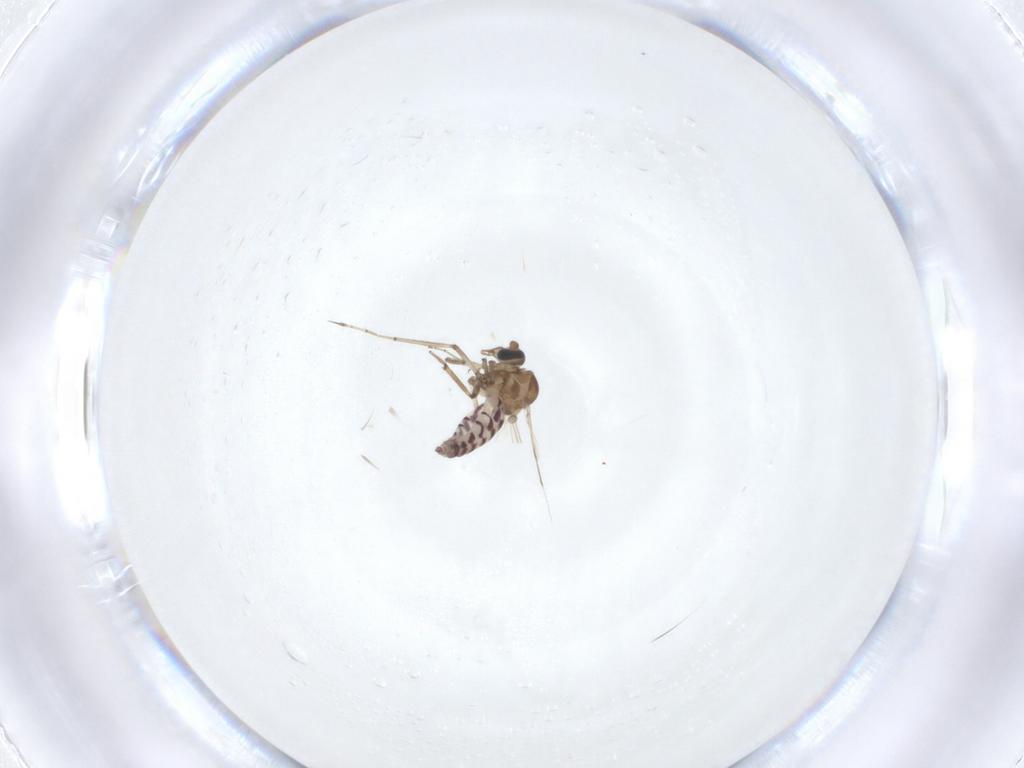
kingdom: Animalia
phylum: Arthropoda
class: Insecta
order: Diptera
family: Ceratopogonidae
